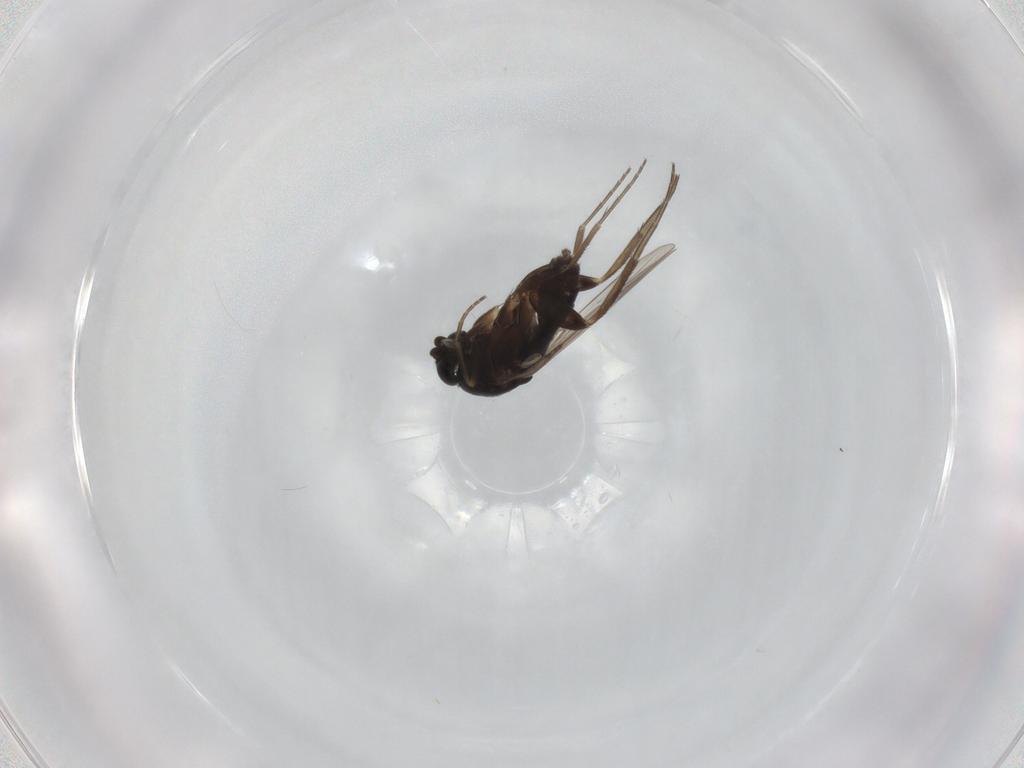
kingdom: Animalia
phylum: Arthropoda
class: Insecta
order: Diptera
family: Phoridae
